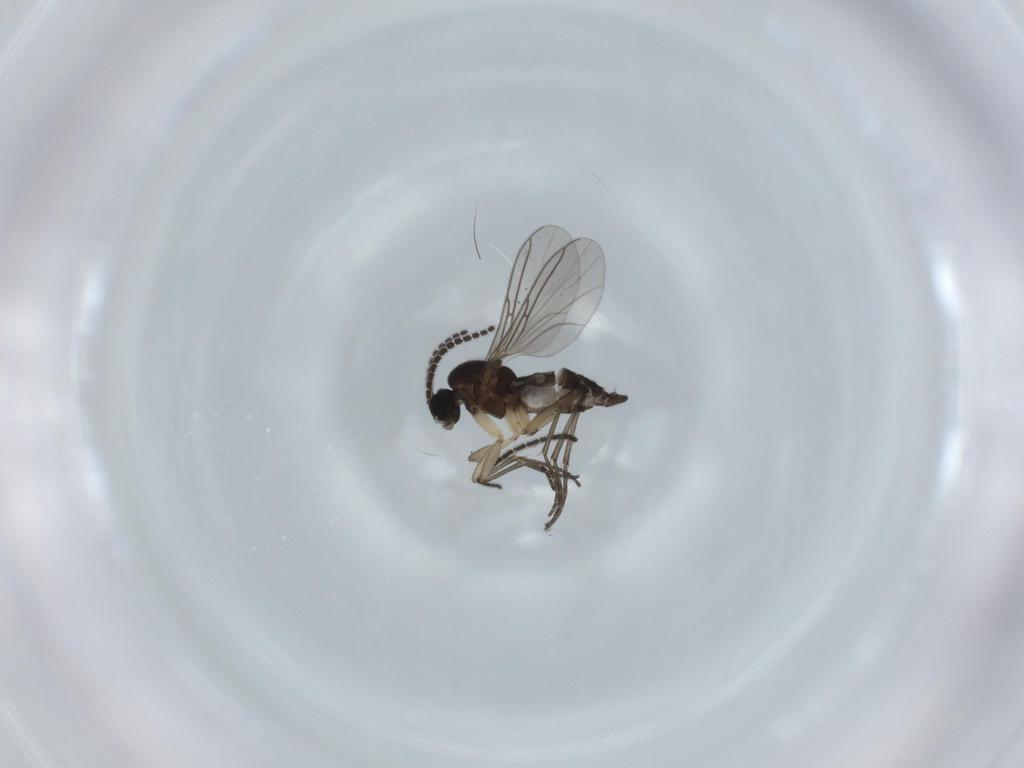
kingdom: Animalia
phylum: Arthropoda
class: Insecta
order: Diptera
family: Sciaridae
